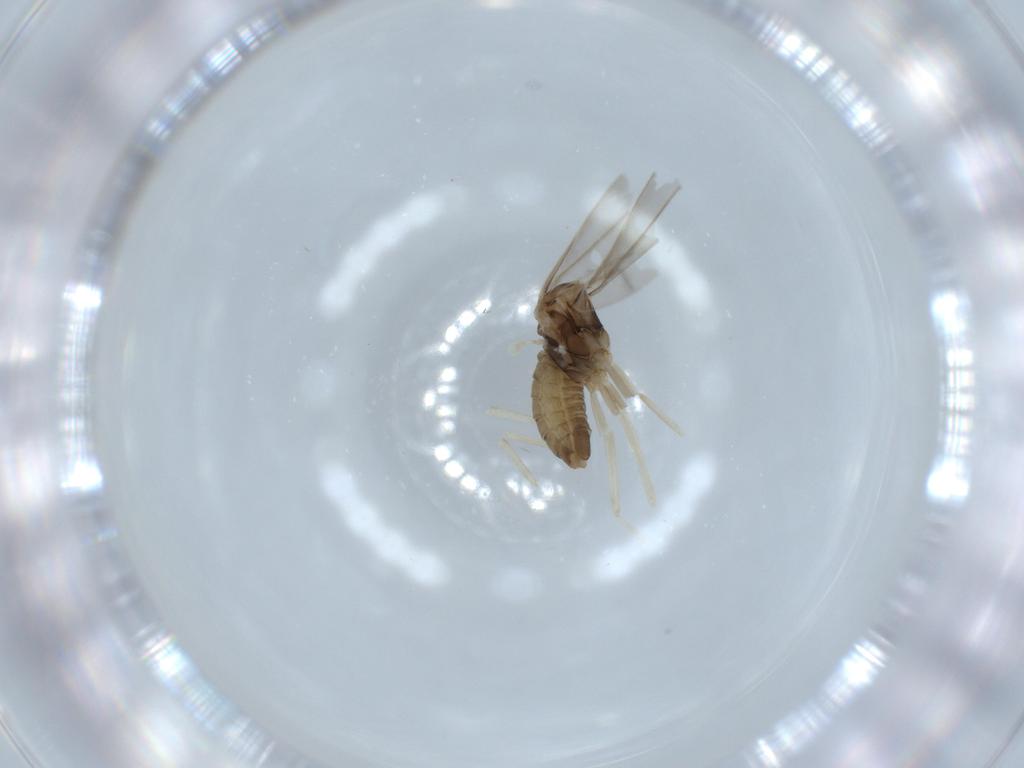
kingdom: Animalia
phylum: Arthropoda
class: Insecta
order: Diptera
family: Cecidomyiidae
